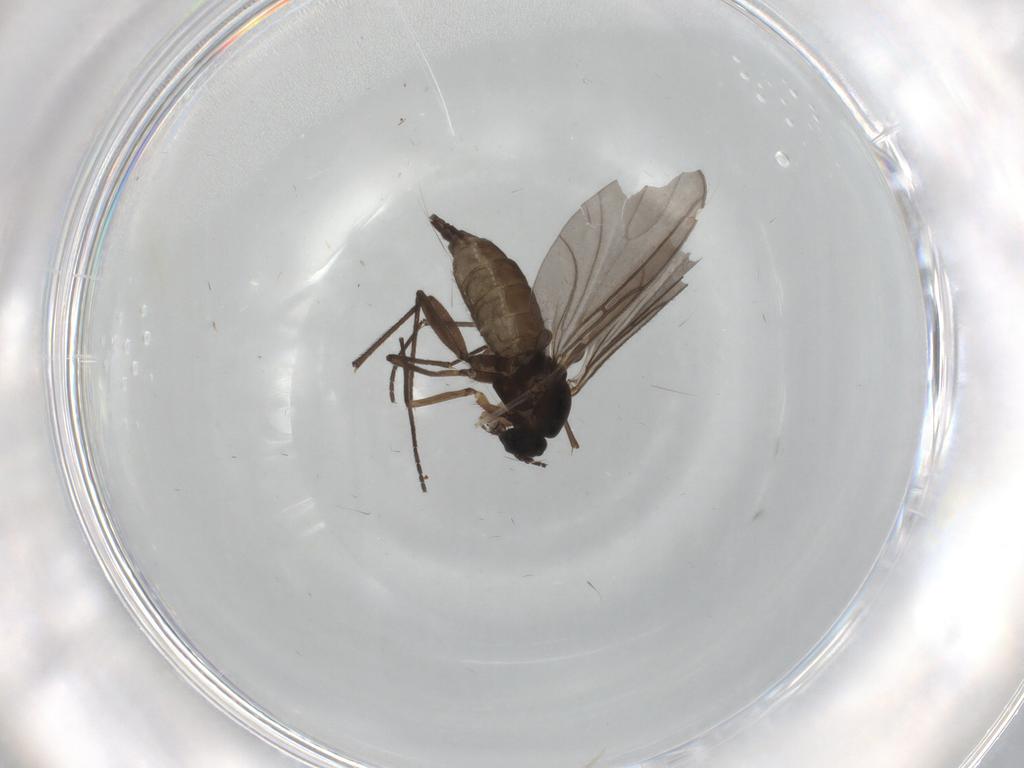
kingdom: Animalia
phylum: Arthropoda
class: Insecta
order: Diptera
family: Sciaridae
